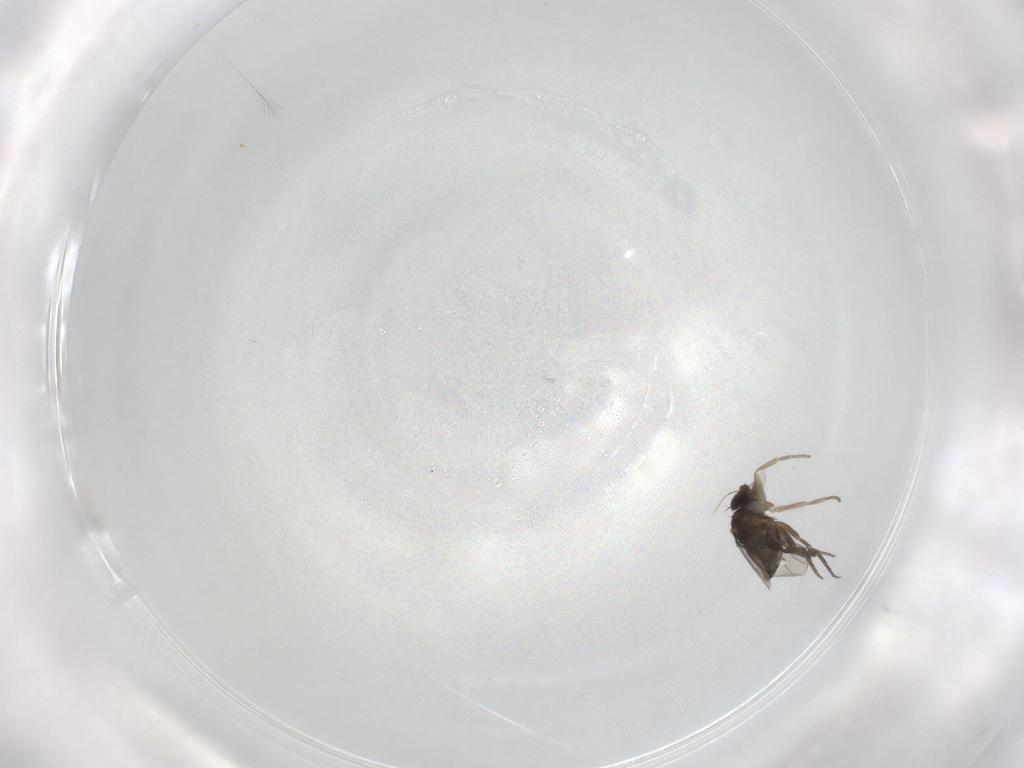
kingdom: Animalia
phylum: Arthropoda
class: Insecta
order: Diptera
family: Phoridae
